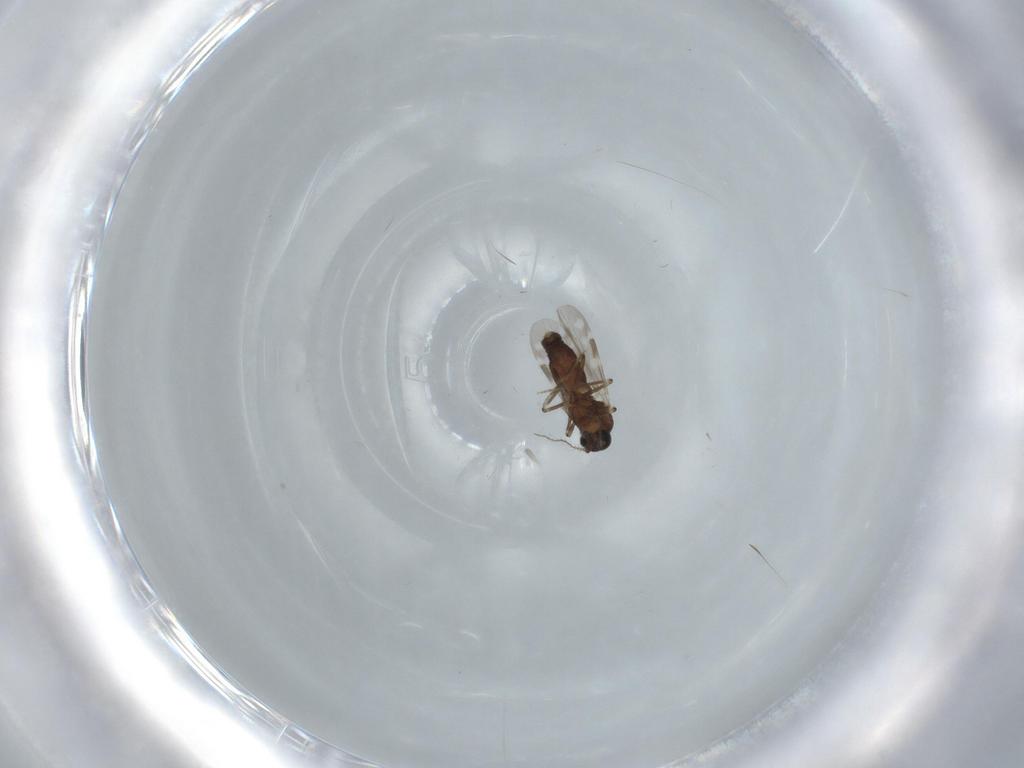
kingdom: Animalia
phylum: Arthropoda
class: Insecta
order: Diptera
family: Ceratopogonidae
